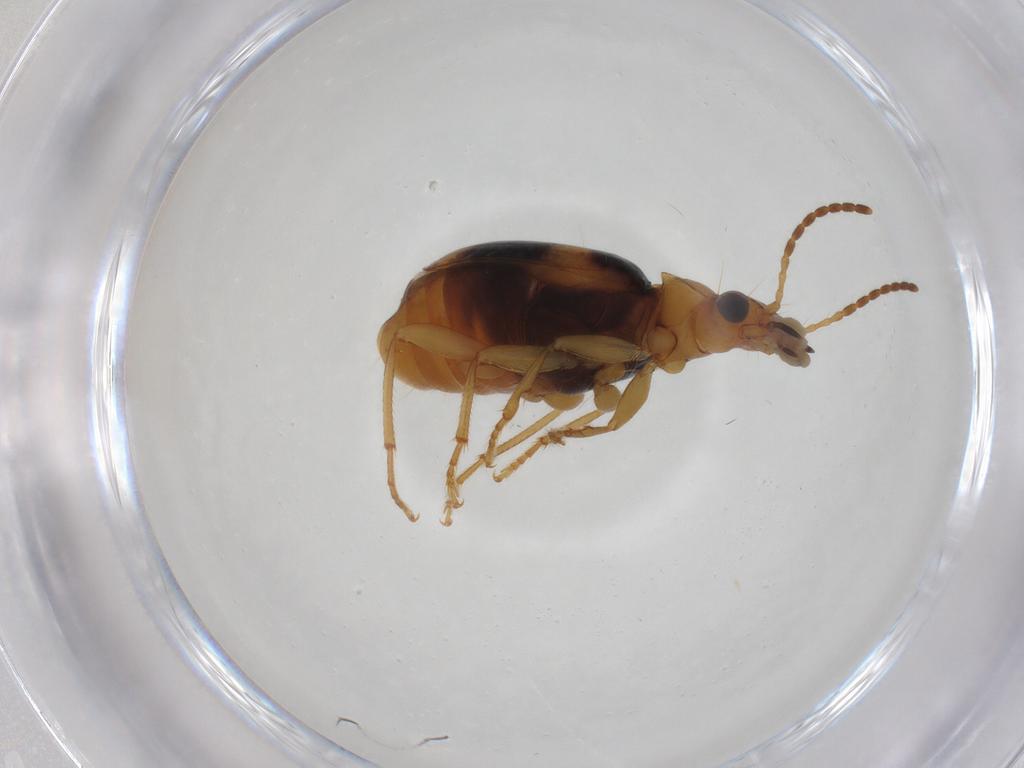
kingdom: Animalia
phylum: Arthropoda
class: Insecta
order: Coleoptera
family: Carabidae
